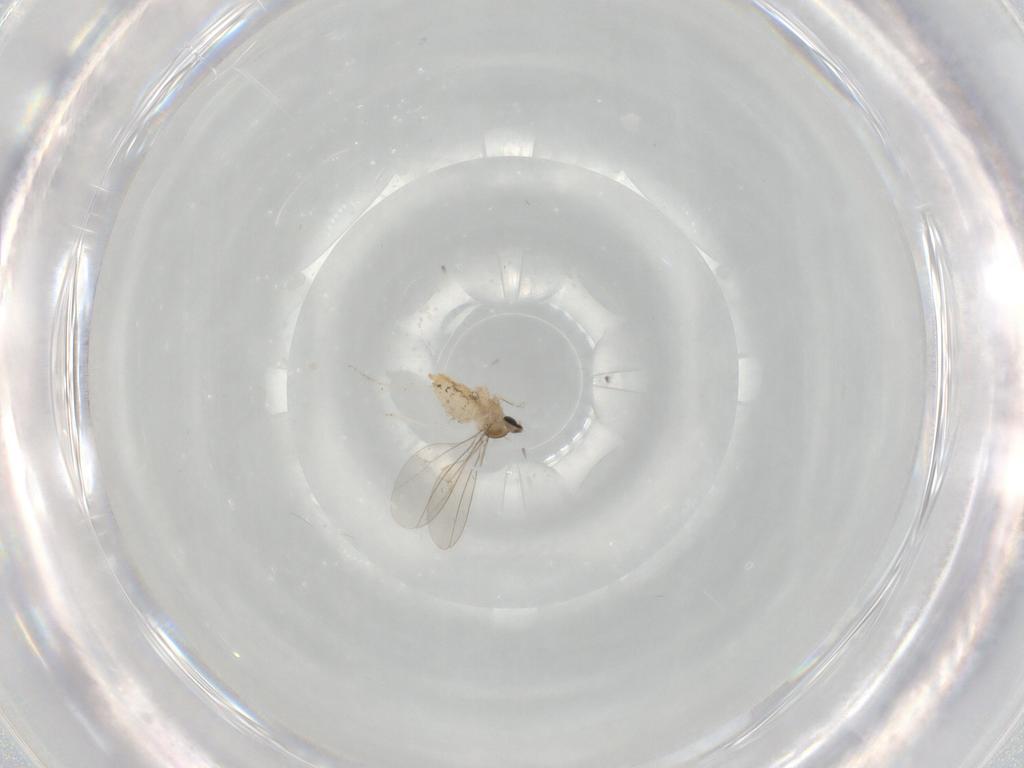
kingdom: Animalia
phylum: Arthropoda
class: Insecta
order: Diptera
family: Cecidomyiidae
